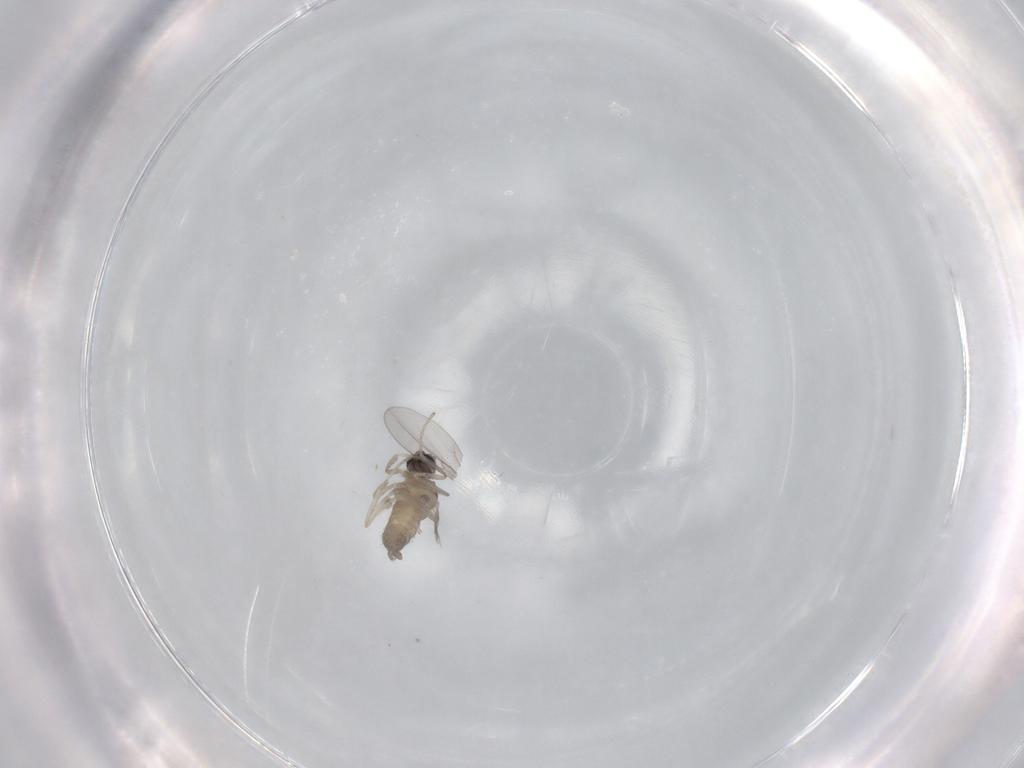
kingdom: Animalia
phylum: Arthropoda
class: Insecta
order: Diptera
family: Cecidomyiidae
